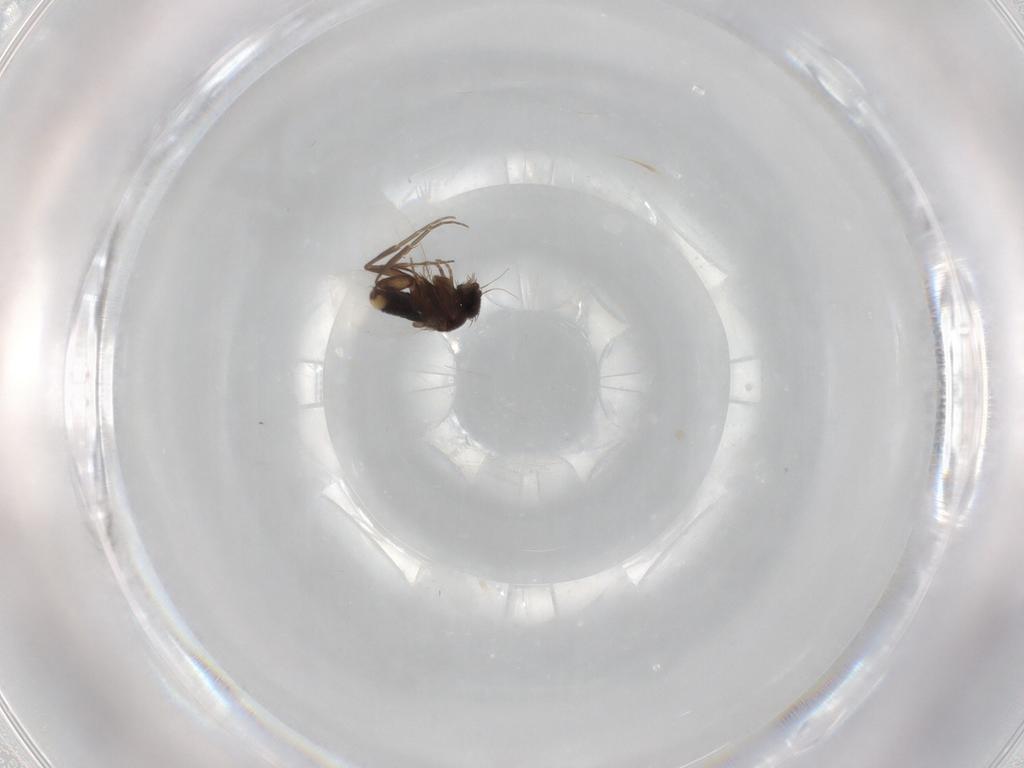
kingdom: Animalia
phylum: Arthropoda
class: Insecta
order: Diptera
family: Phoridae
